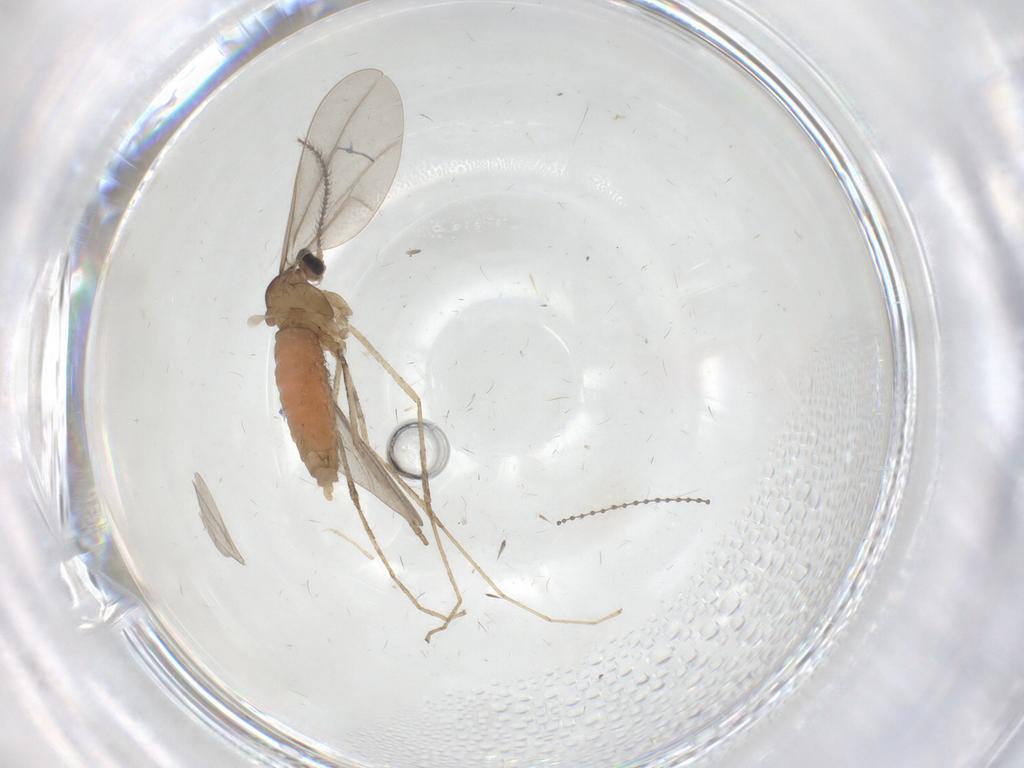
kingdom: Animalia
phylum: Arthropoda
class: Insecta
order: Diptera
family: Cecidomyiidae
